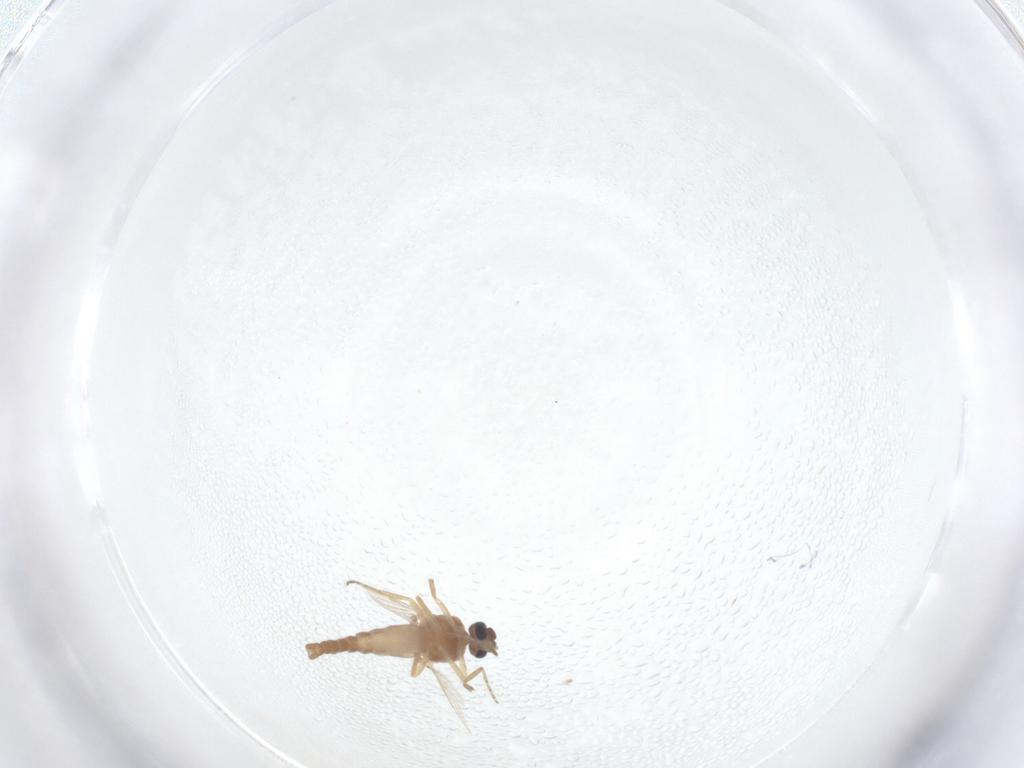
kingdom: Animalia
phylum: Arthropoda
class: Insecta
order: Diptera
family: Ceratopogonidae
